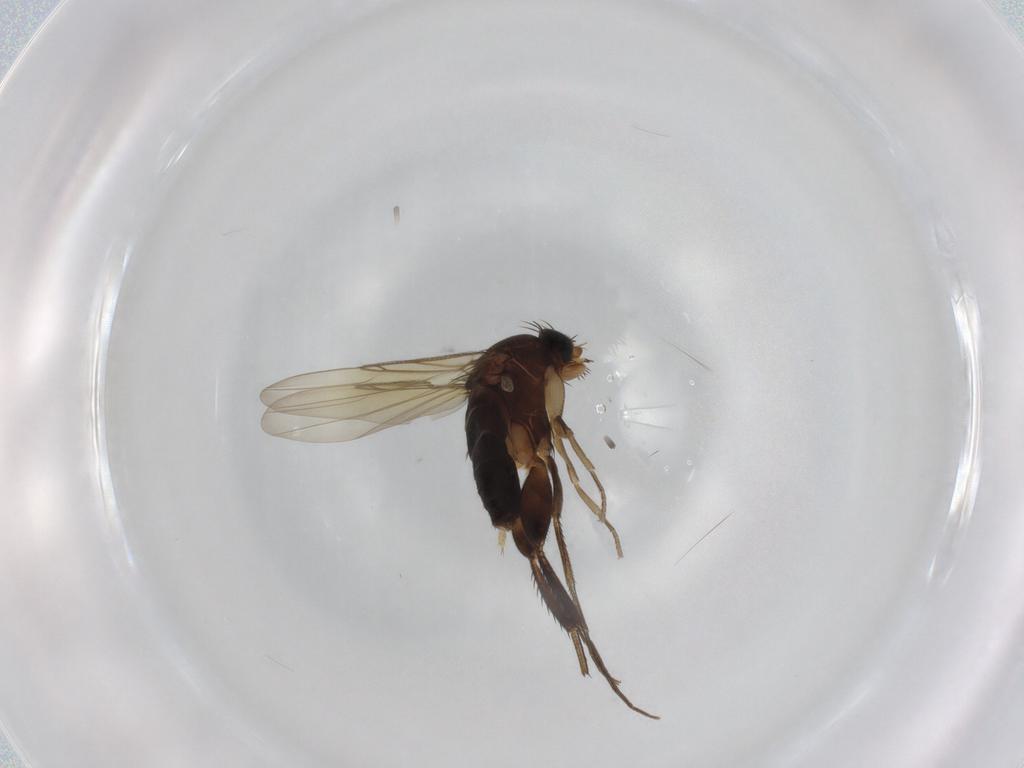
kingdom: Animalia
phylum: Arthropoda
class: Insecta
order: Diptera
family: Phoridae
